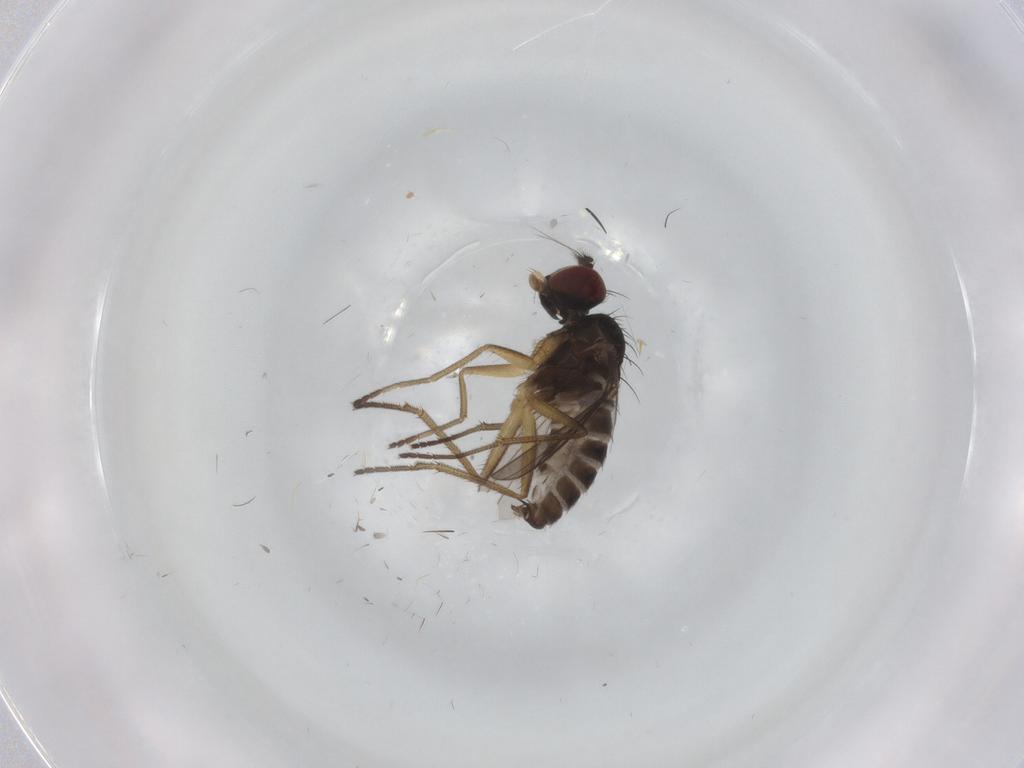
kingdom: Animalia
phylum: Arthropoda
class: Insecta
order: Diptera
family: Dolichopodidae
